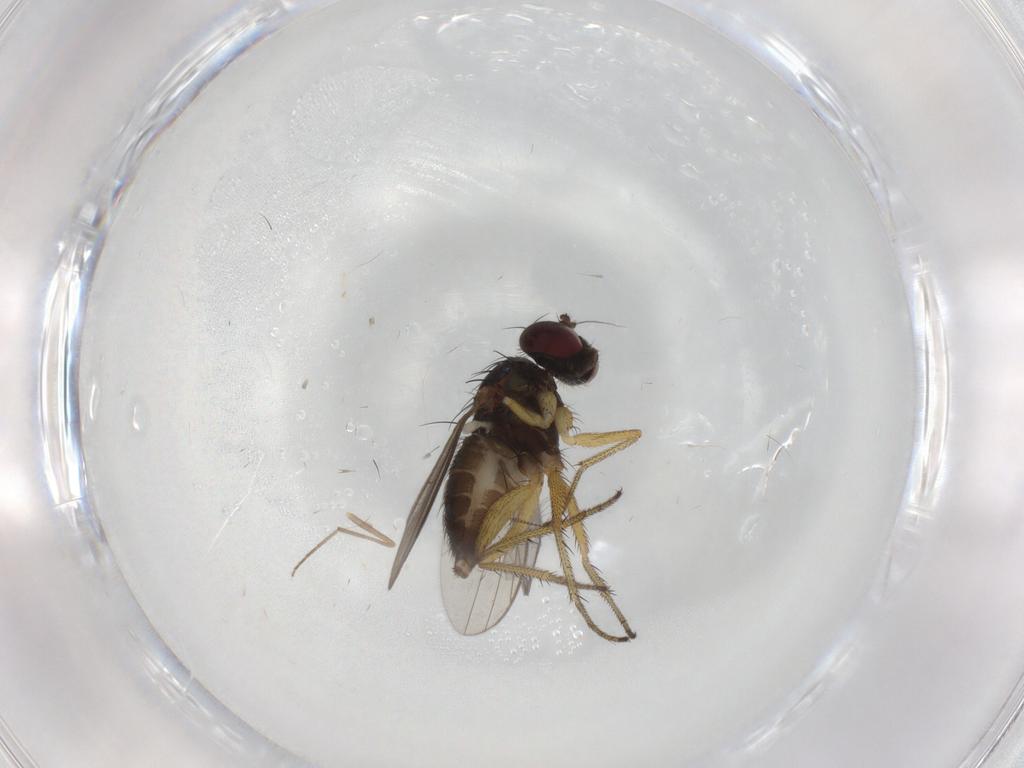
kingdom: Animalia
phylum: Arthropoda
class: Insecta
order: Diptera
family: Chironomidae
